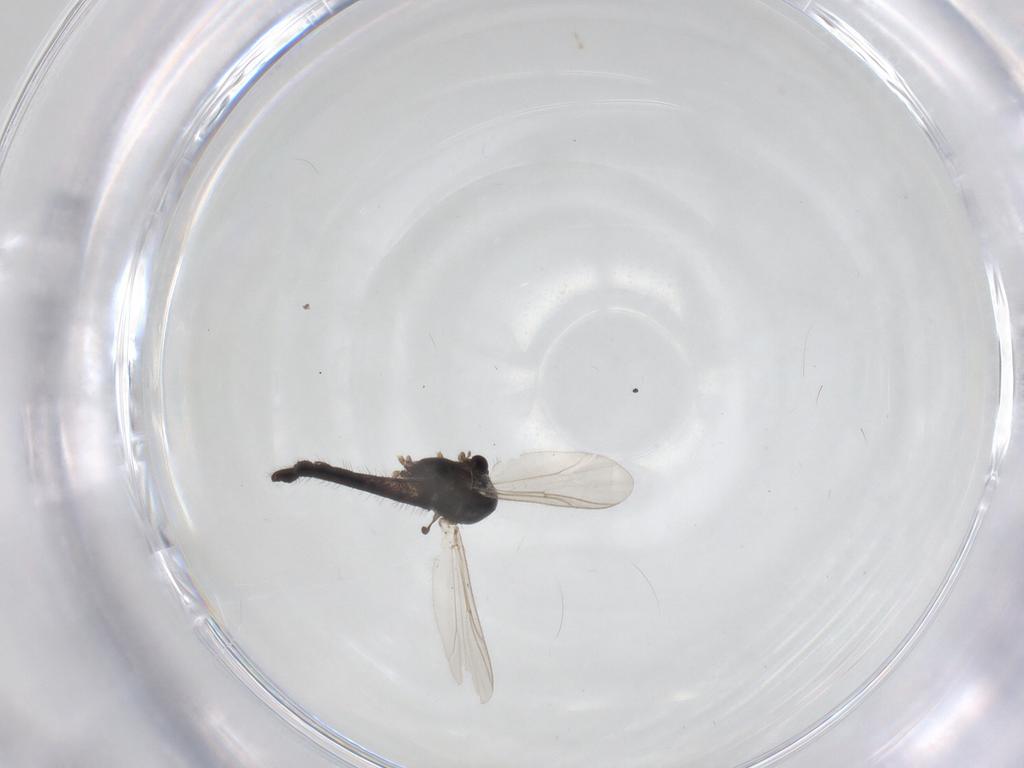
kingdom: Animalia
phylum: Arthropoda
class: Insecta
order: Diptera
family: Chironomidae
